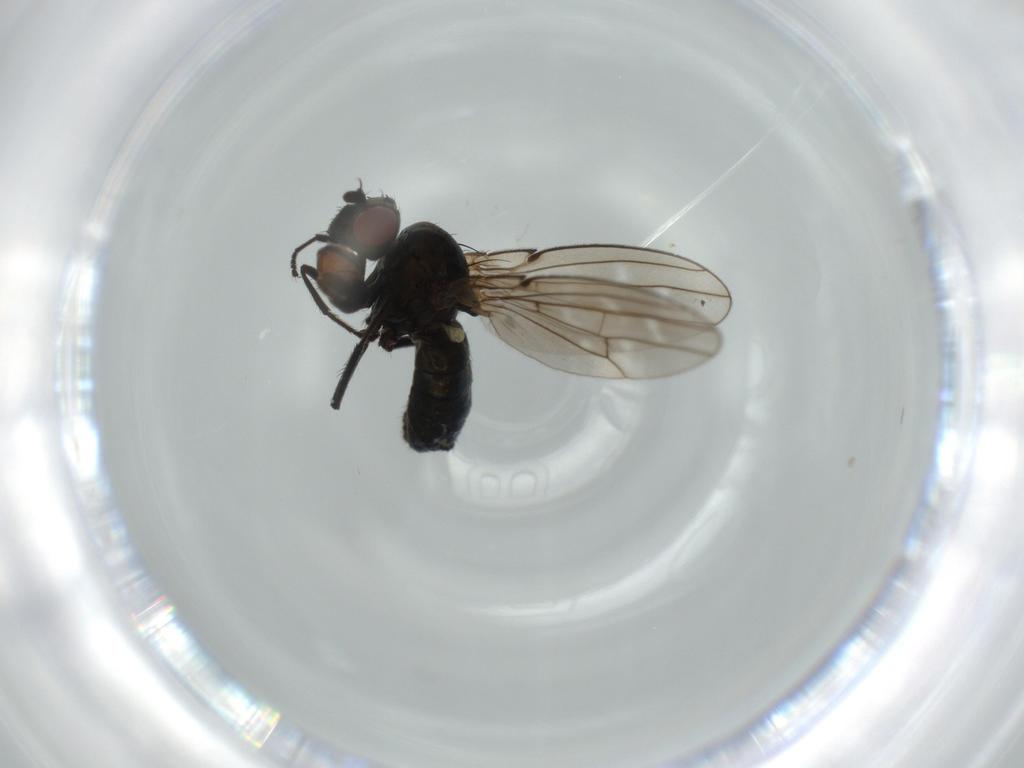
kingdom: Animalia
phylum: Arthropoda
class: Insecta
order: Diptera
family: Ephydridae
